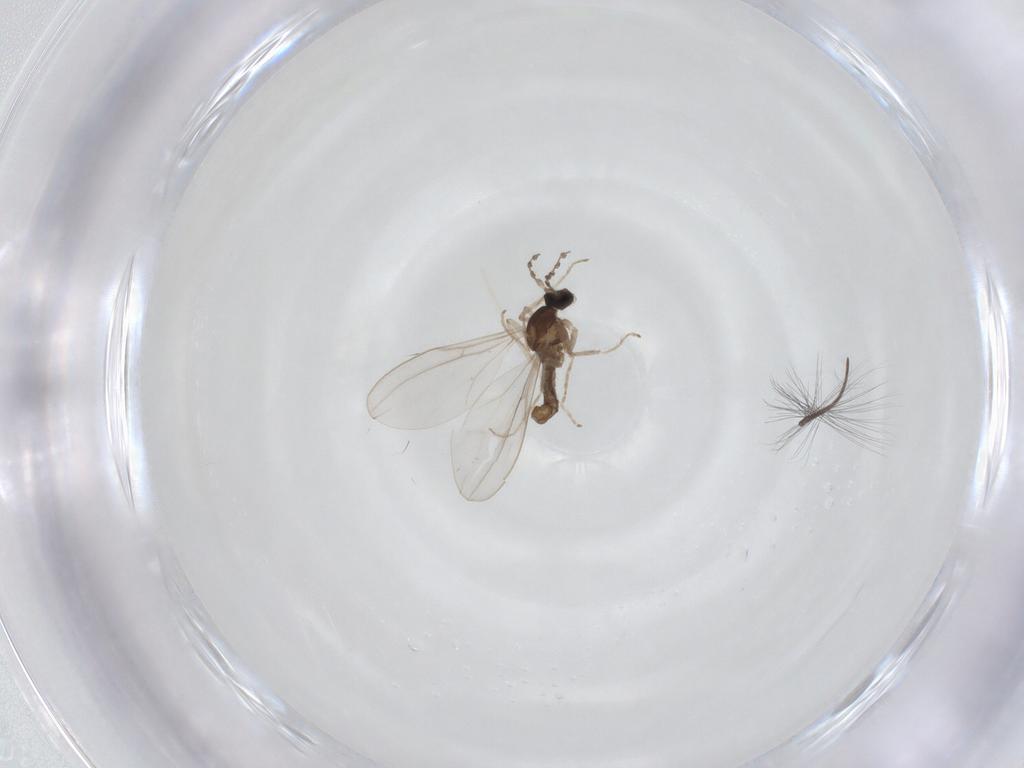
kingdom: Animalia
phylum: Arthropoda
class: Insecta
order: Diptera
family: Cecidomyiidae
